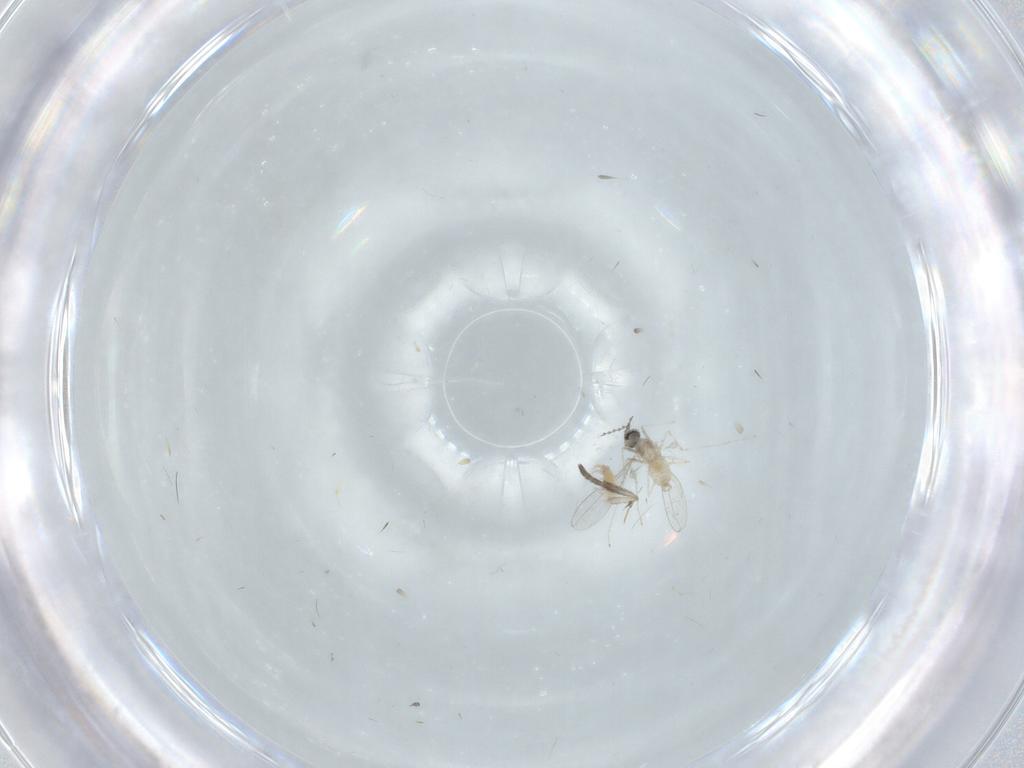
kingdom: Animalia
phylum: Arthropoda
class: Insecta
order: Diptera
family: Cecidomyiidae
